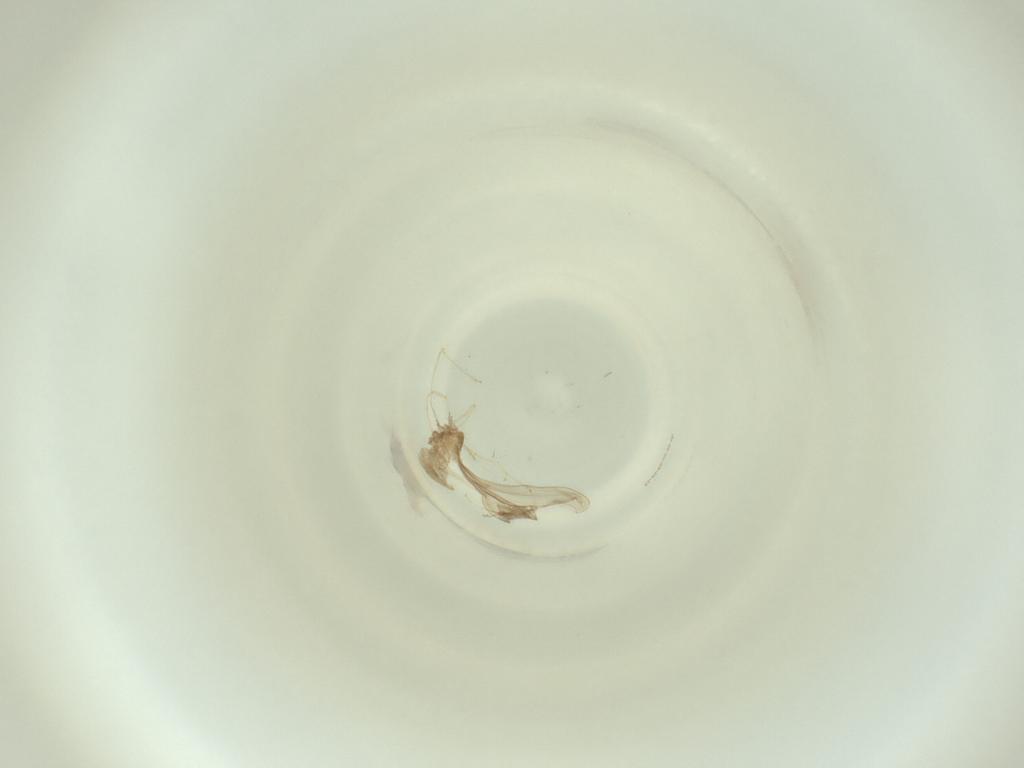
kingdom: Animalia
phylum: Arthropoda
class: Insecta
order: Diptera
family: Cecidomyiidae
